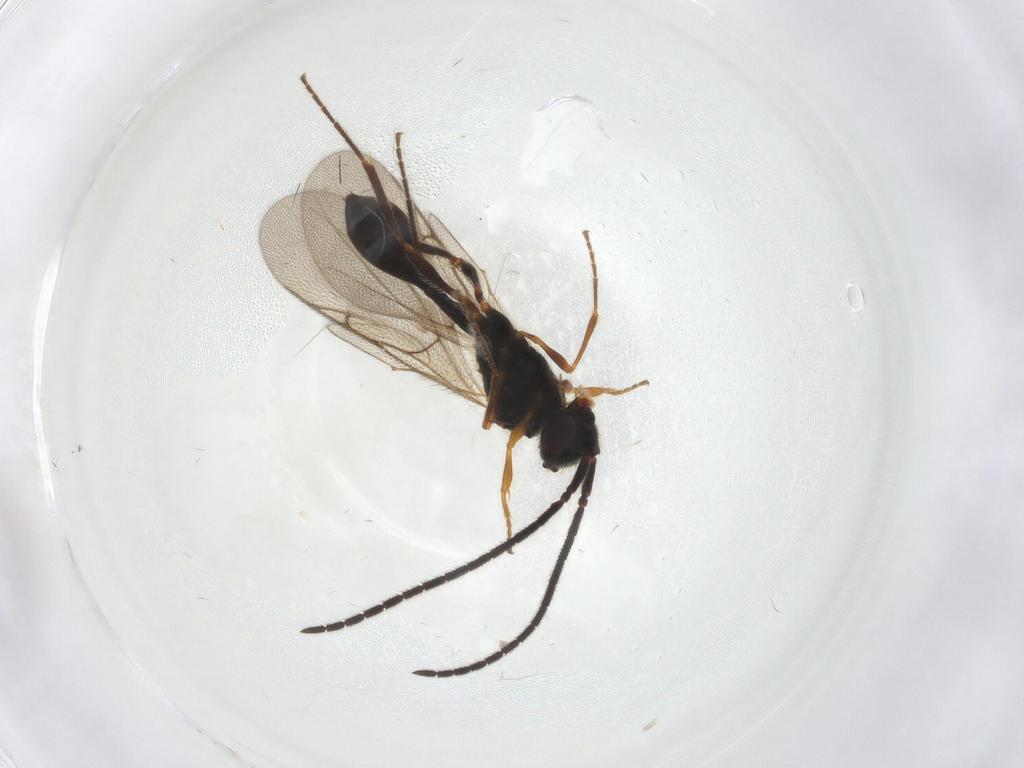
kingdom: Animalia
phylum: Arthropoda
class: Insecta
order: Hymenoptera
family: Diapriidae
